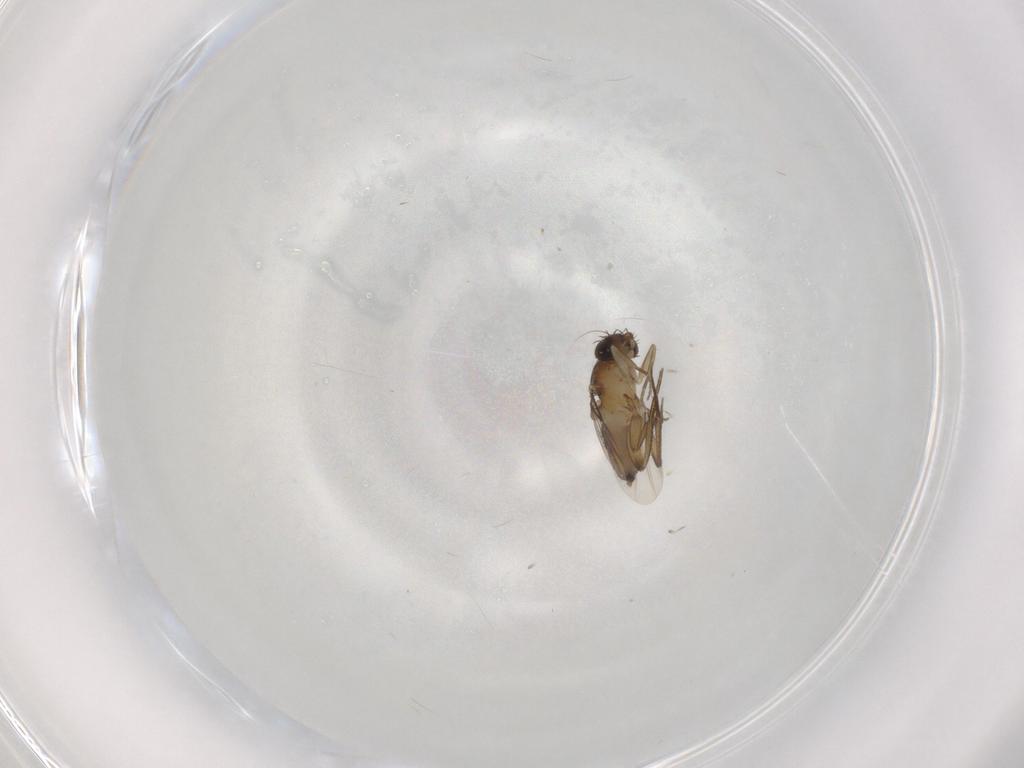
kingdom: Animalia
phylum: Arthropoda
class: Insecta
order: Diptera
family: Phoridae
